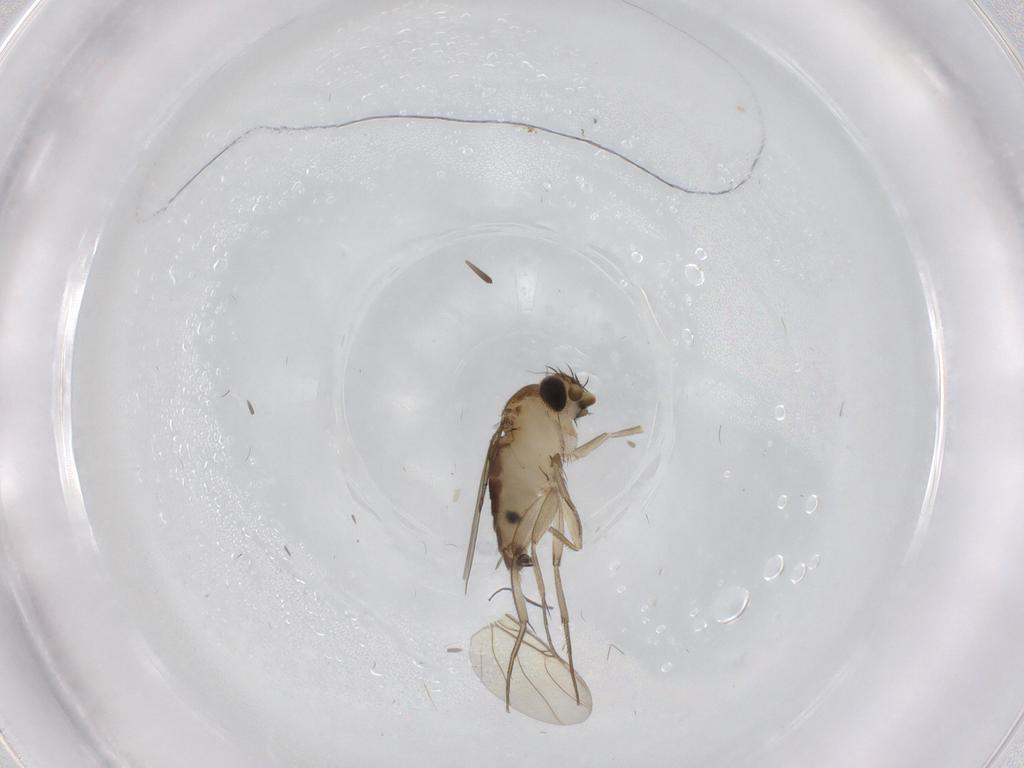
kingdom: Animalia
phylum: Arthropoda
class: Insecta
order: Diptera
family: Phoridae
